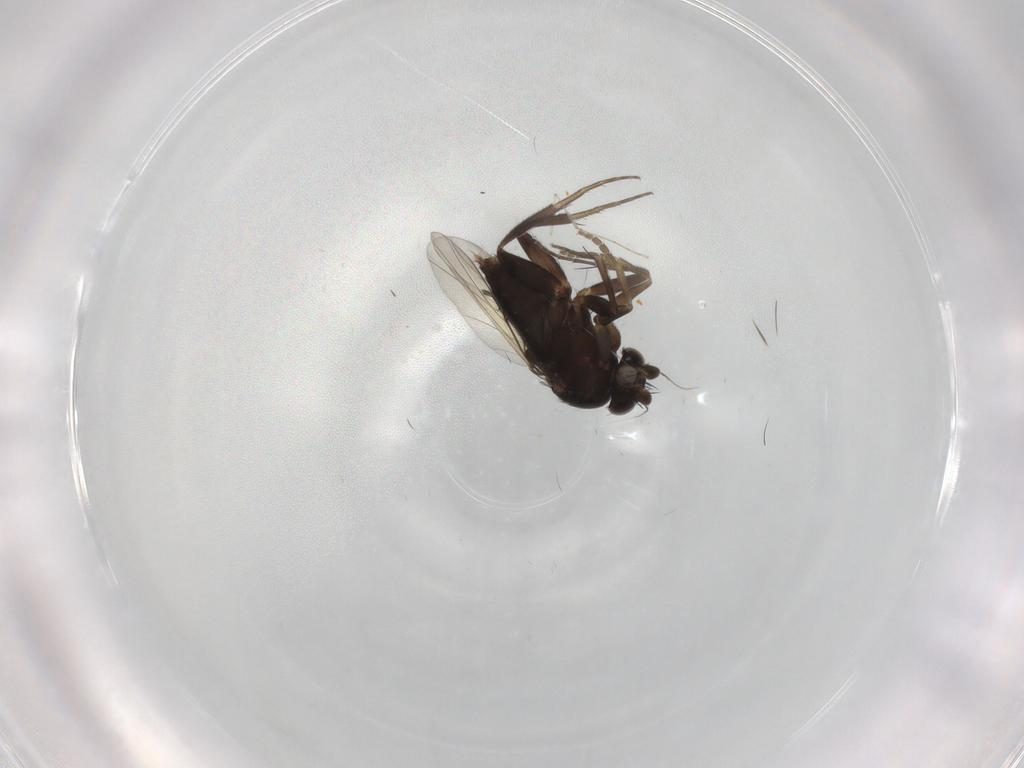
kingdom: Animalia
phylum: Arthropoda
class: Insecta
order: Diptera
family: Phoridae
